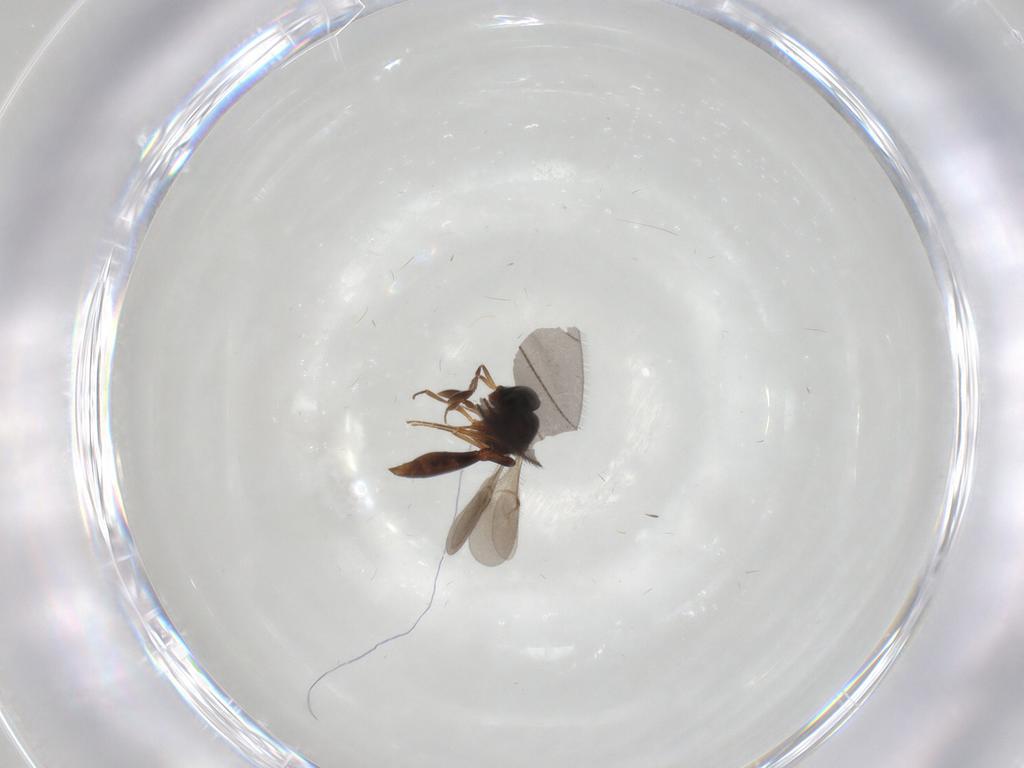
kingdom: Animalia
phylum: Arthropoda
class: Insecta
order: Hymenoptera
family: Scelionidae
